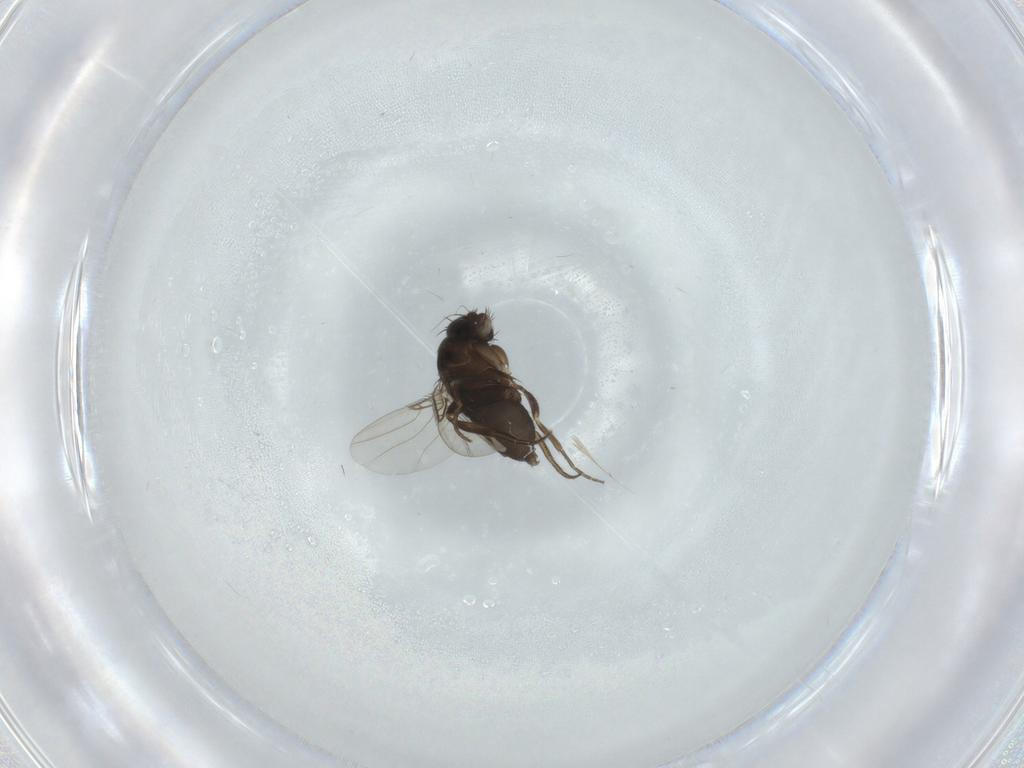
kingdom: Animalia
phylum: Arthropoda
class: Insecta
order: Diptera
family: Phoridae
